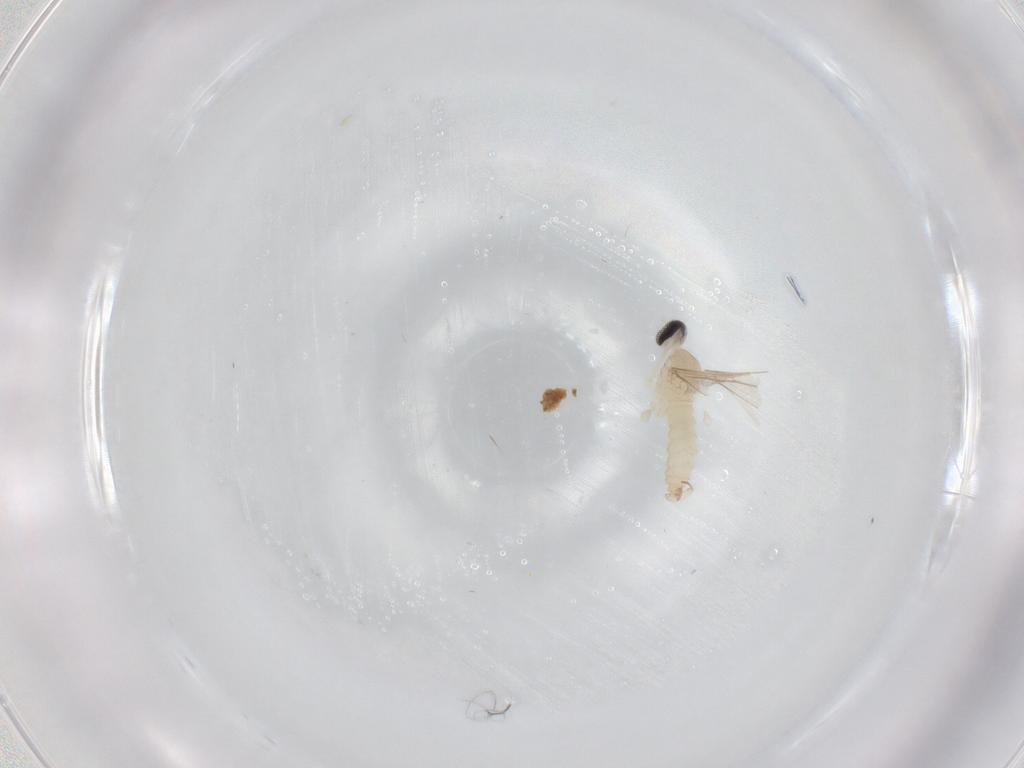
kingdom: Animalia
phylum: Arthropoda
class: Insecta
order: Diptera
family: Cecidomyiidae
